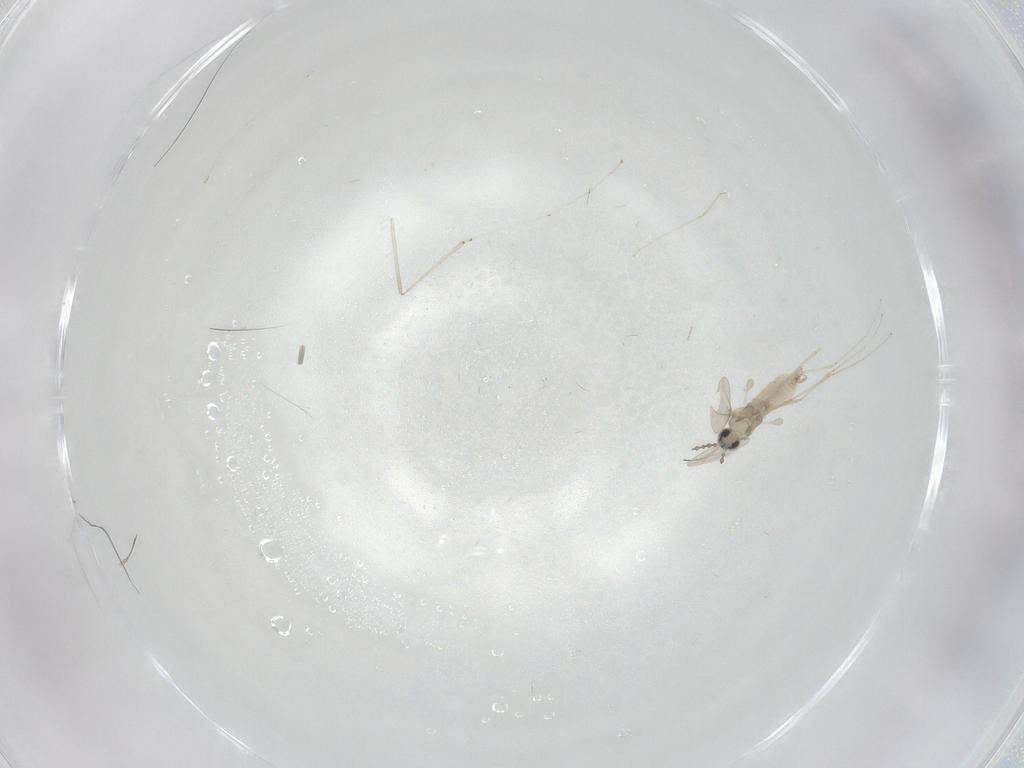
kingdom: Animalia
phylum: Arthropoda
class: Insecta
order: Diptera
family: Cecidomyiidae
